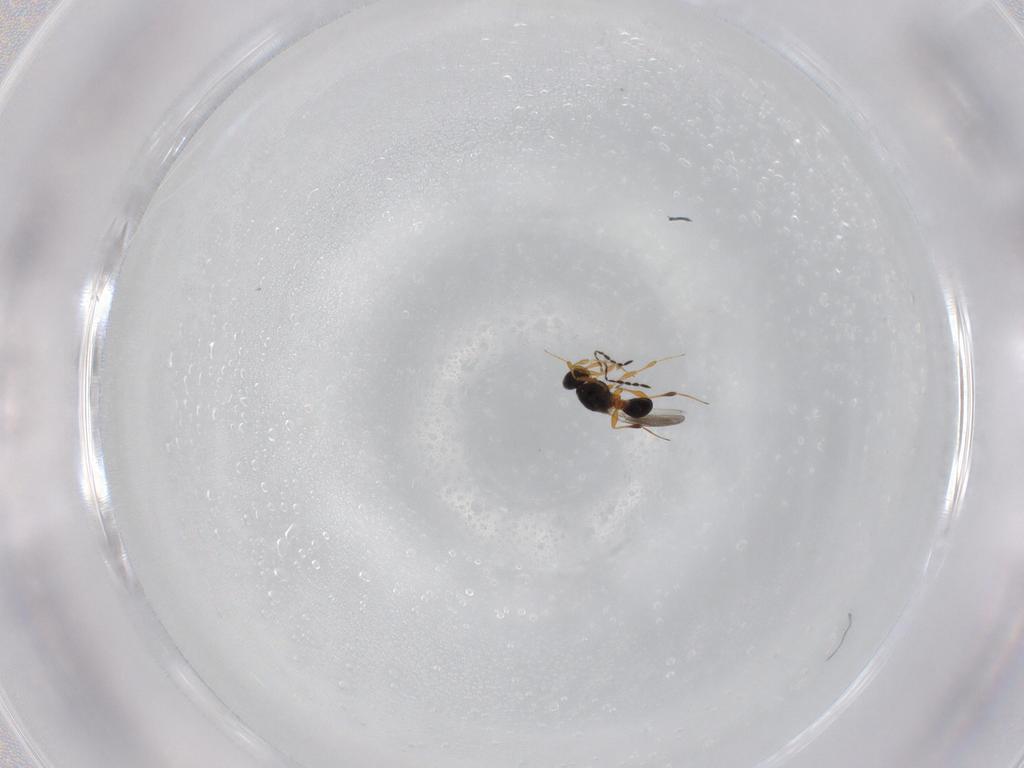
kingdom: Animalia
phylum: Arthropoda
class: Insecta
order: Hymenoptera
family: Platygastridae
